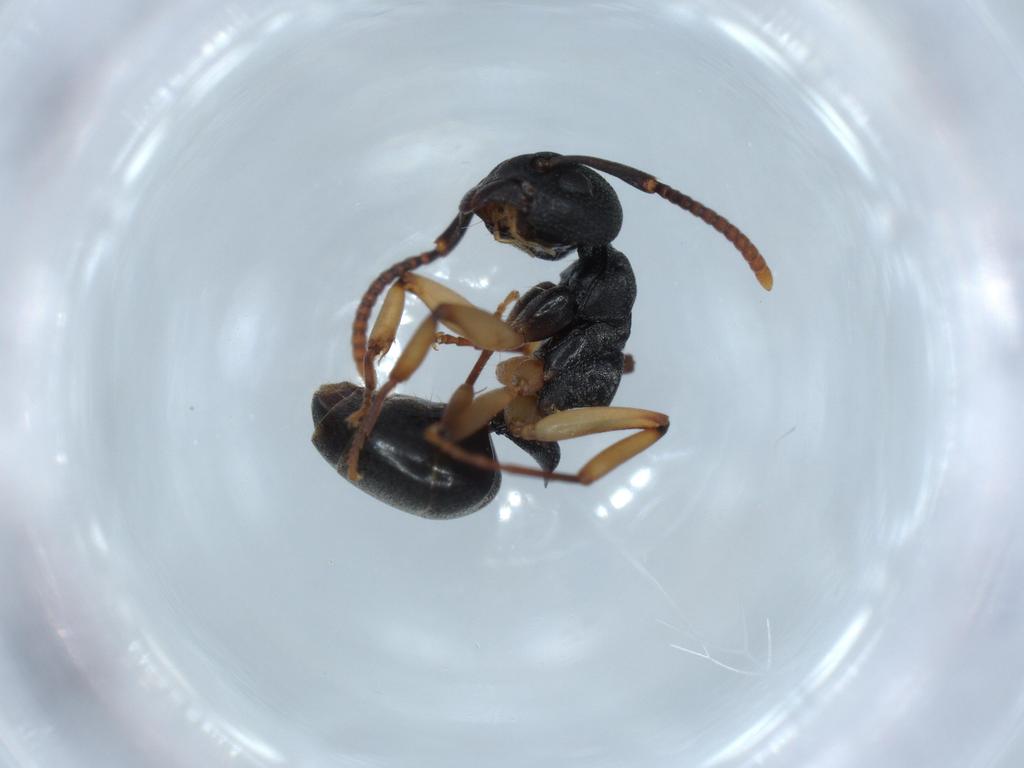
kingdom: Animalia
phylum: Arthropoda
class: Insecta
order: Hymenoptera
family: Formicidae
